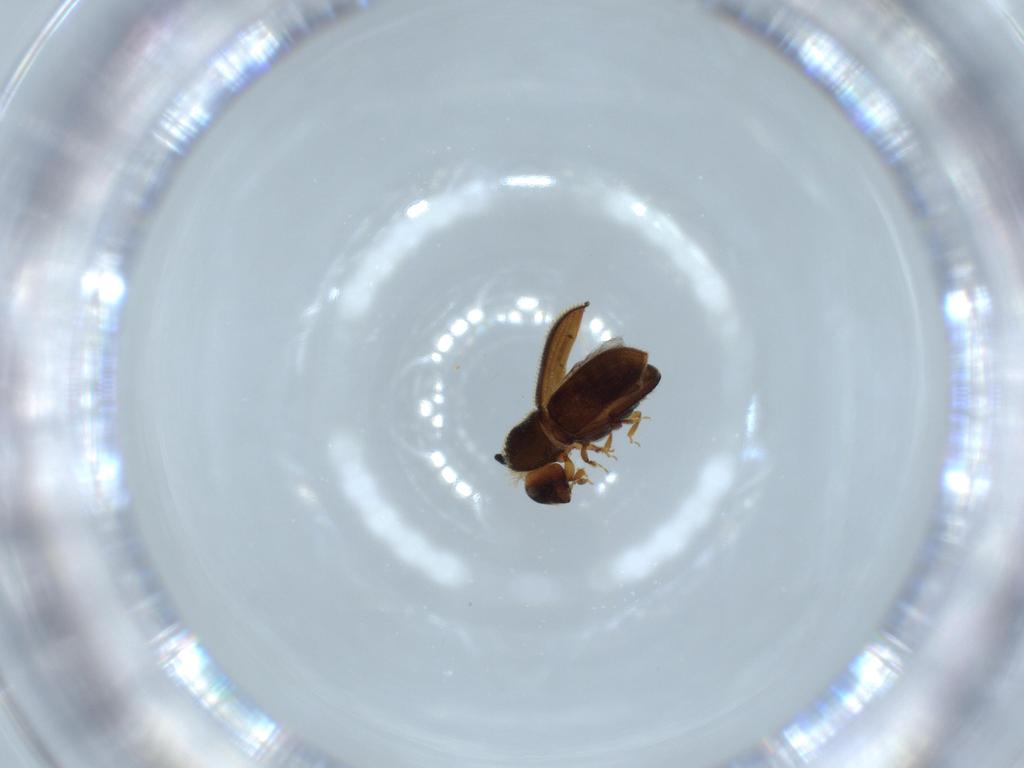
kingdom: Animalia
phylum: Arthropoda
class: Insecta
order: Coleoptera
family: Curculionidae
